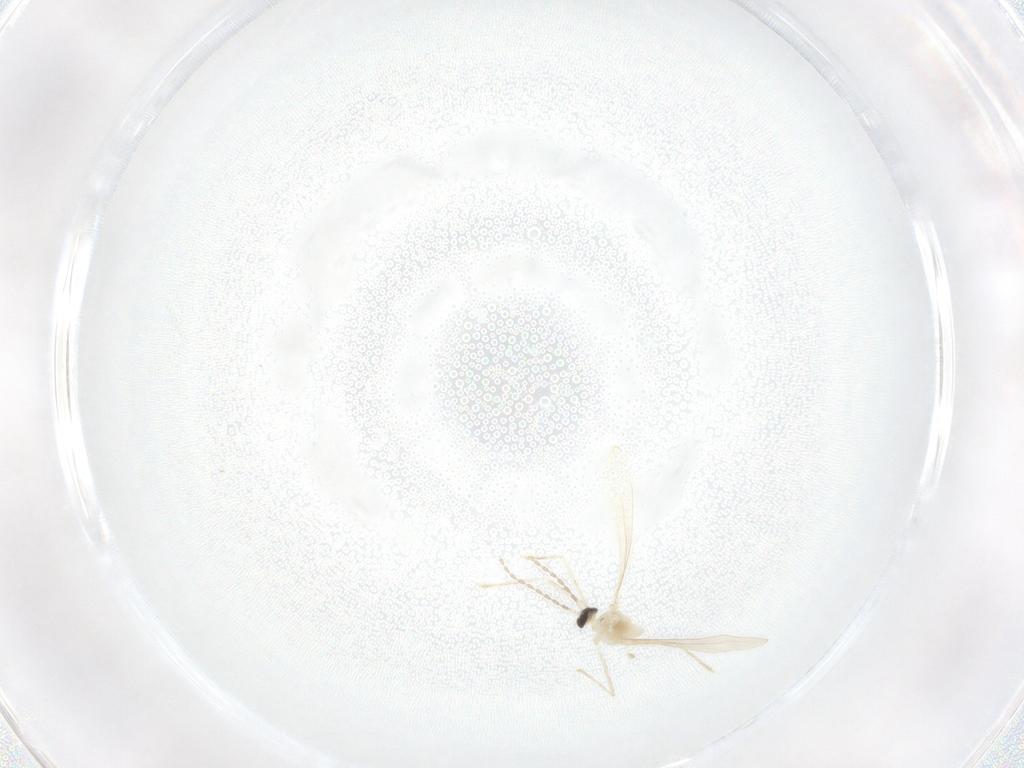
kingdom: Animalia
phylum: Arthropoda
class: Insecta
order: Diptera
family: Cecidomyiidae
